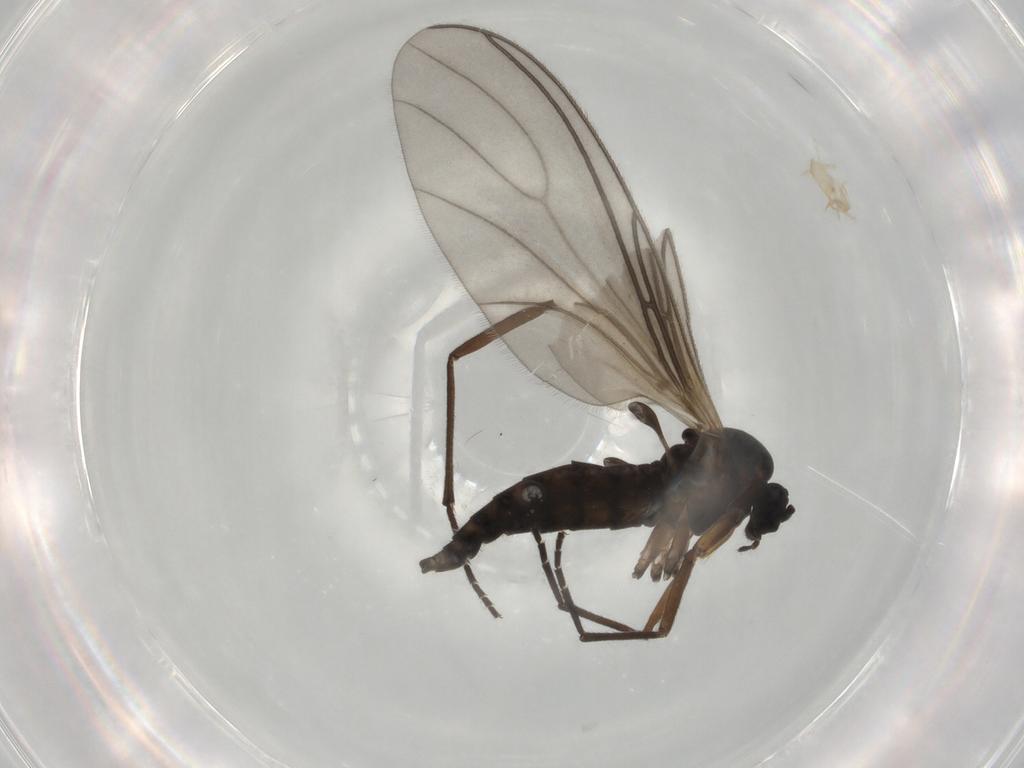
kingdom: Animalia
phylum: Arthropoda
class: Insecta
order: Diptera
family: Sciaridae
